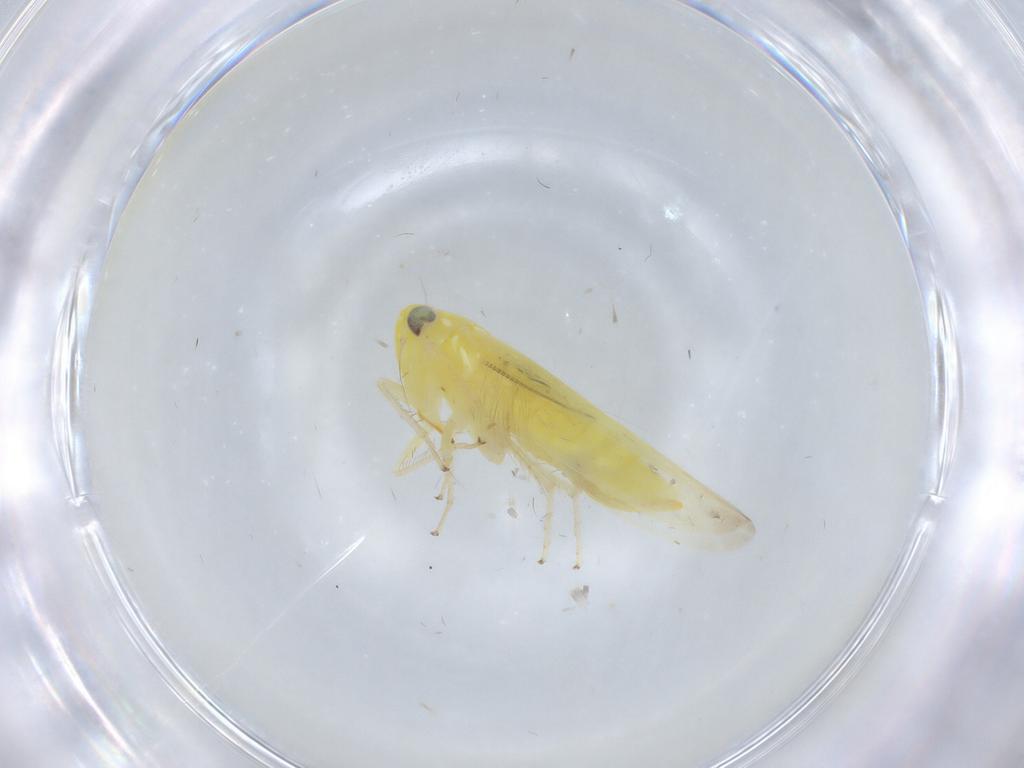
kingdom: Animalia
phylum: Arthropoda
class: Insecta
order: Hemiptera
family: Cicadellidae
